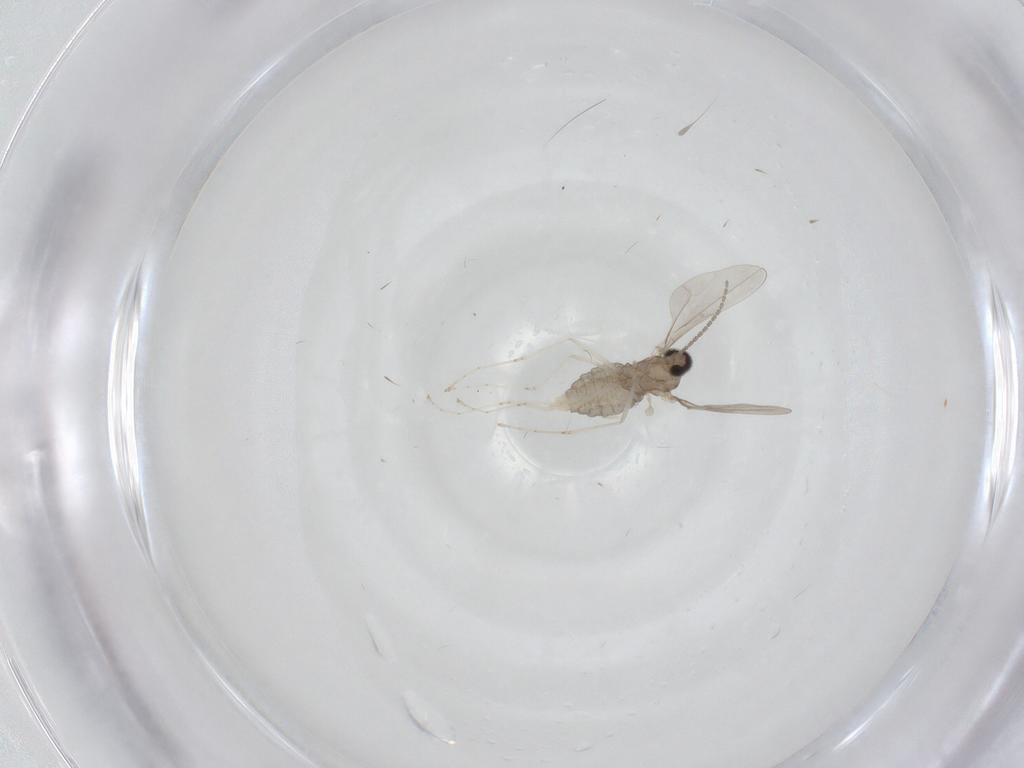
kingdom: Animalia
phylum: Arthropoda
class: Insecta
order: Diptera
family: Cecidomyiidae
